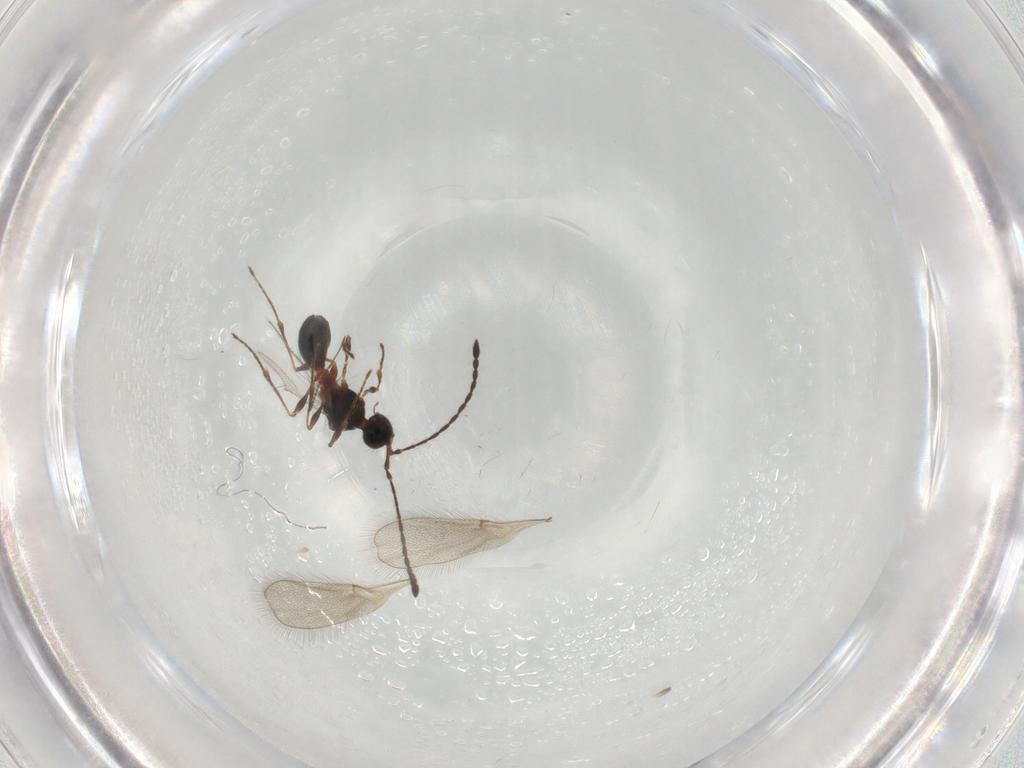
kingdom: Animalia
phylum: Arthropoda
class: Insecta
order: Hymenoptera
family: Diapriidae
